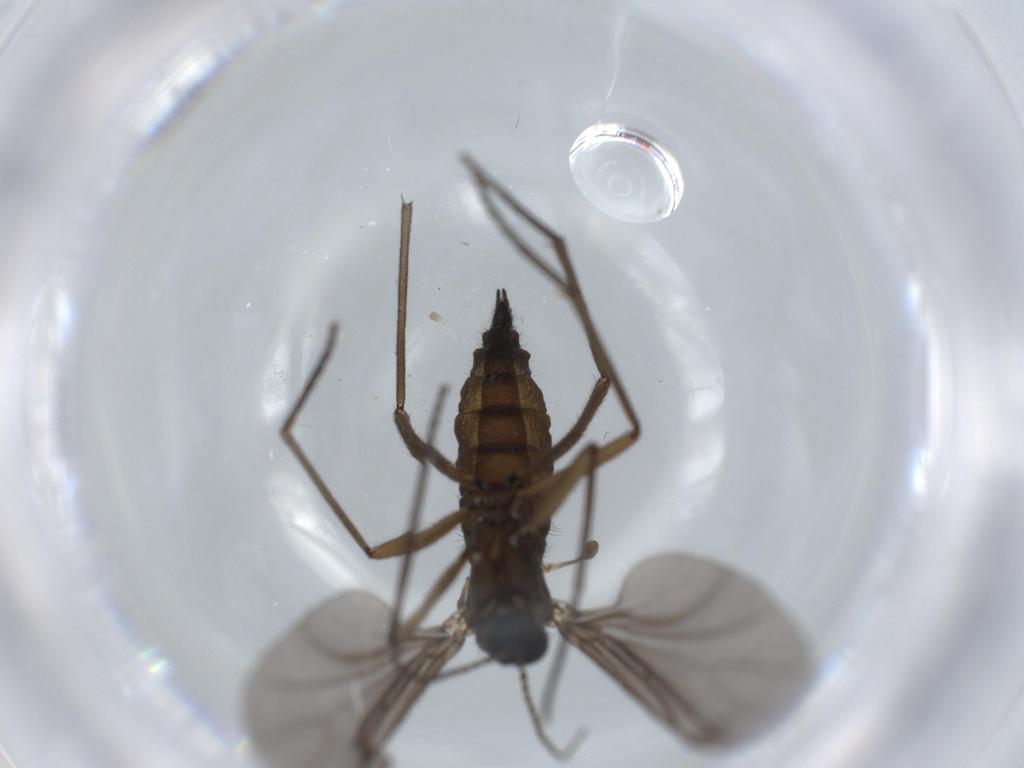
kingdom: Animalia
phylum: Arthropoda
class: Insecta
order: Diptera
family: Sciaridae
